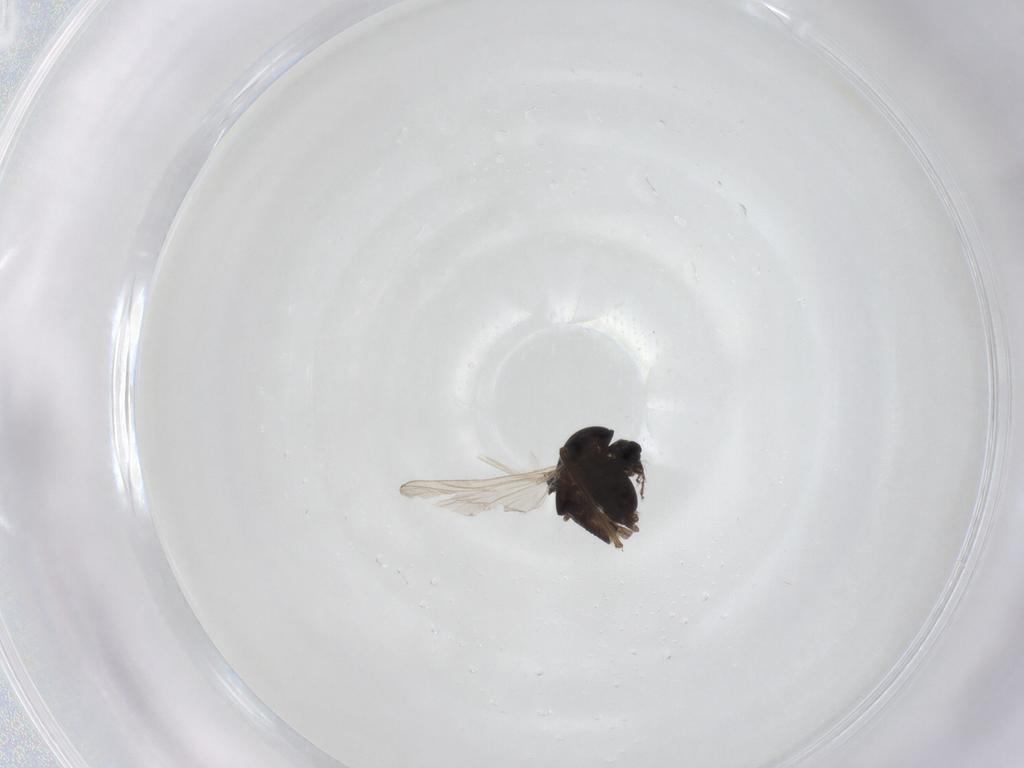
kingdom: Animalia
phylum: Arthropoda
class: Insecta
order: Diptera
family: Chironomidae
